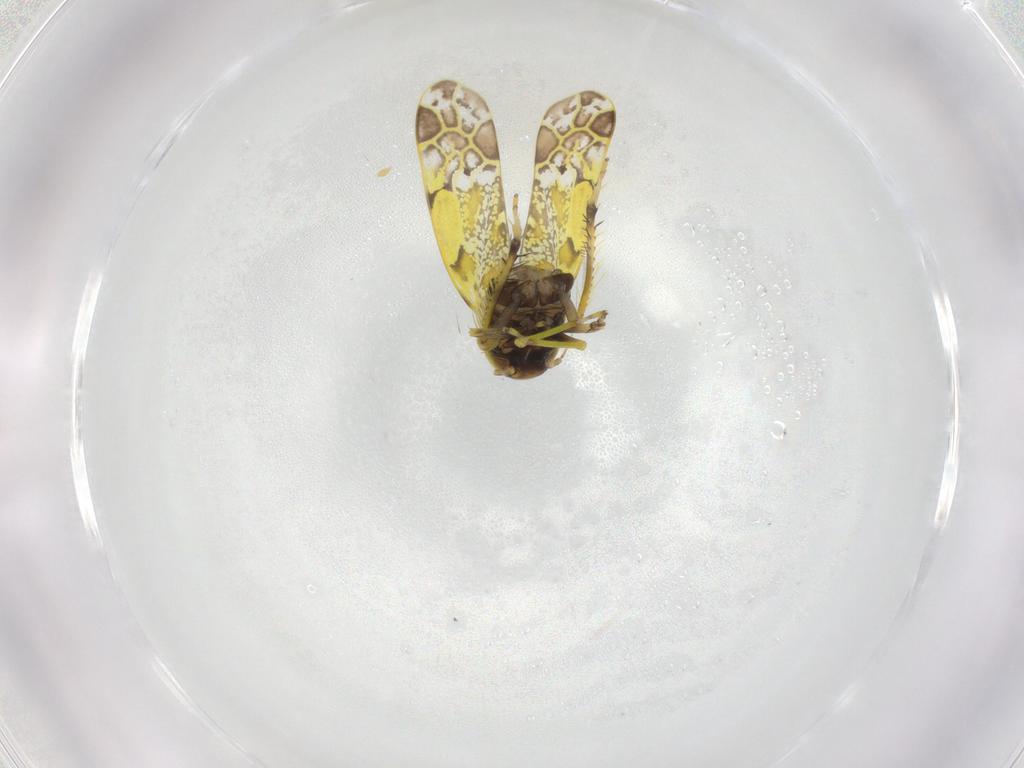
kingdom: Animalia
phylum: Arthropoda
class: Insecta
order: Hemiptera
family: Cicadellidae
